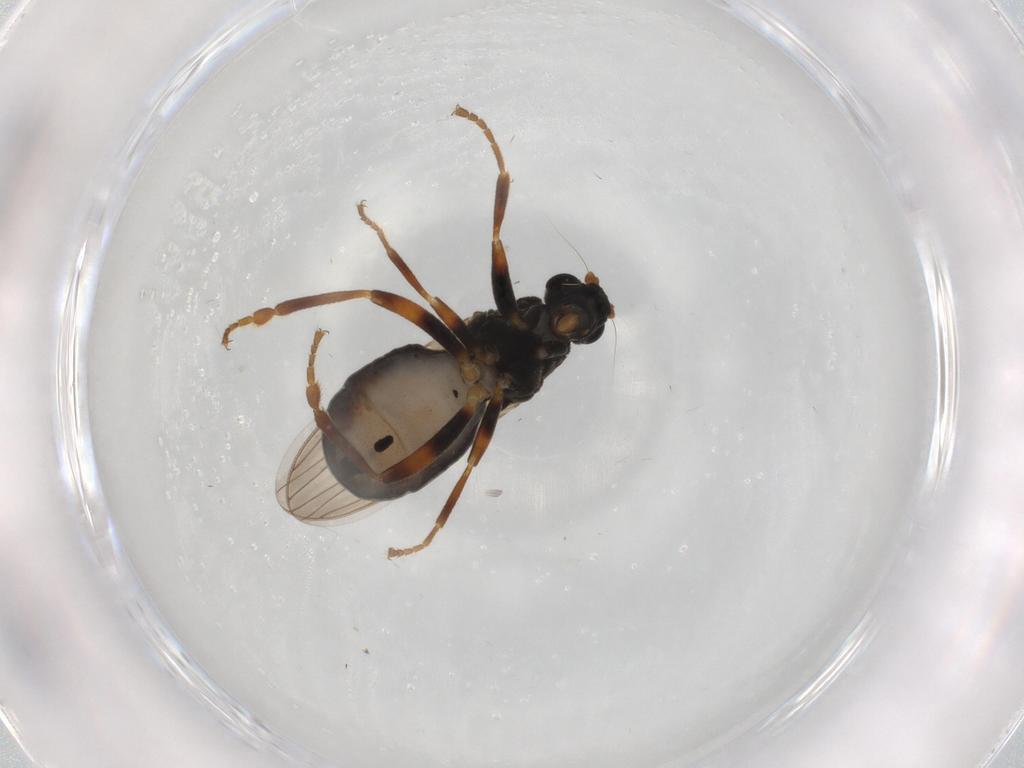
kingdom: Animalia
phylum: Arthropoda
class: Insecta
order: Diptera
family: Sphaeroceridae
